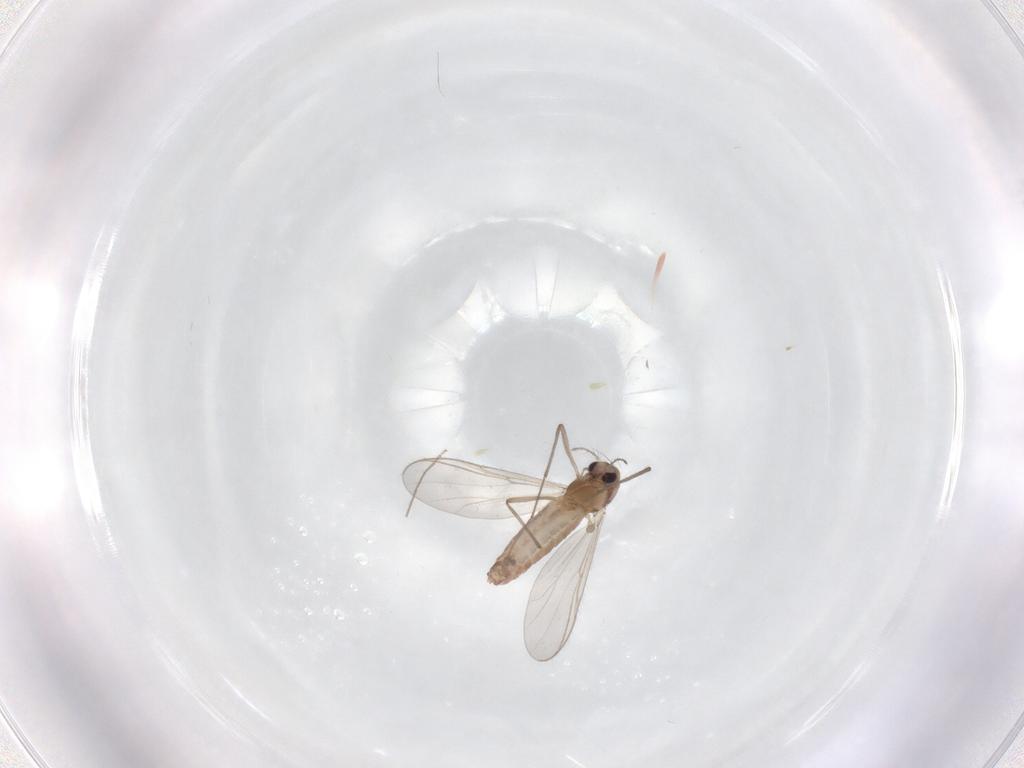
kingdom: Animalia
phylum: Arthropoda
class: Insecta
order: Diptera
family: Chironomidae
